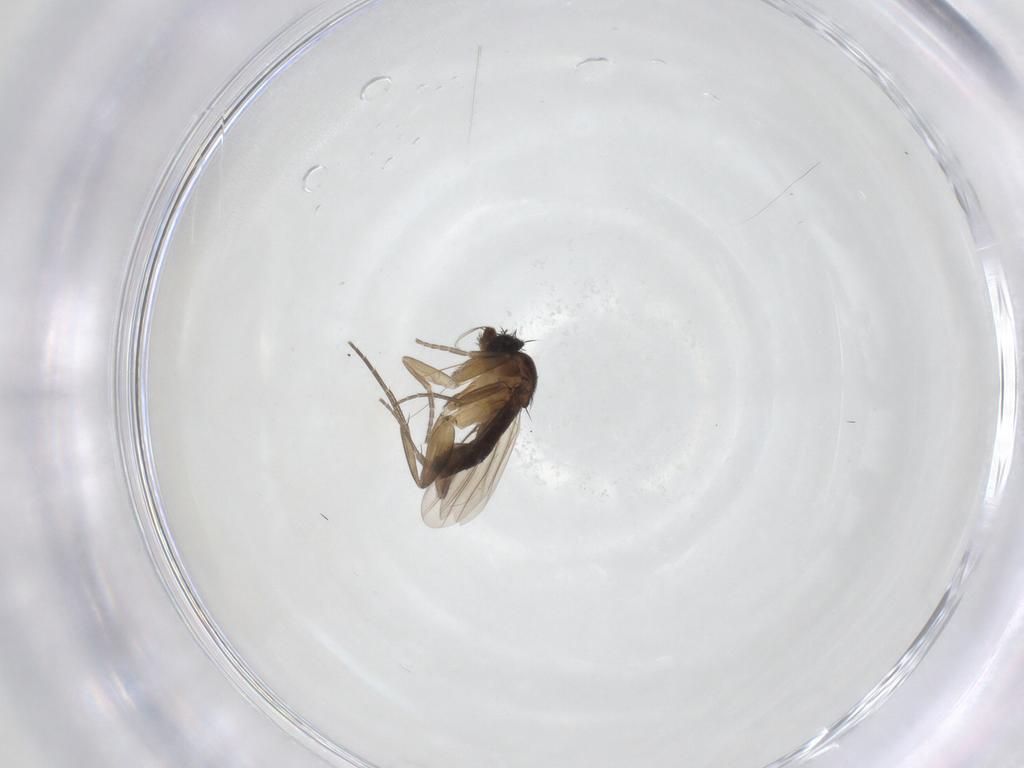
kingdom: Animalia
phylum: Arthropoda
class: Insecta
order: Diptera
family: Phoridae
